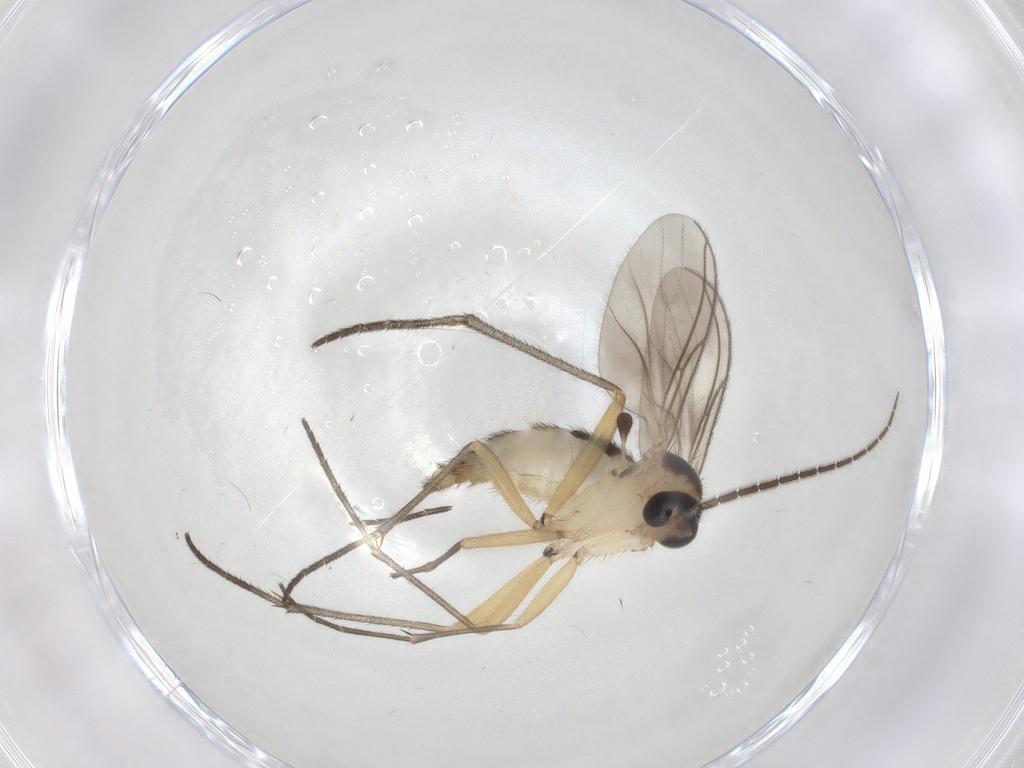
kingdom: Animalia
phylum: Arthropoda
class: Insecta
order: Diptera
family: Sciaridae
